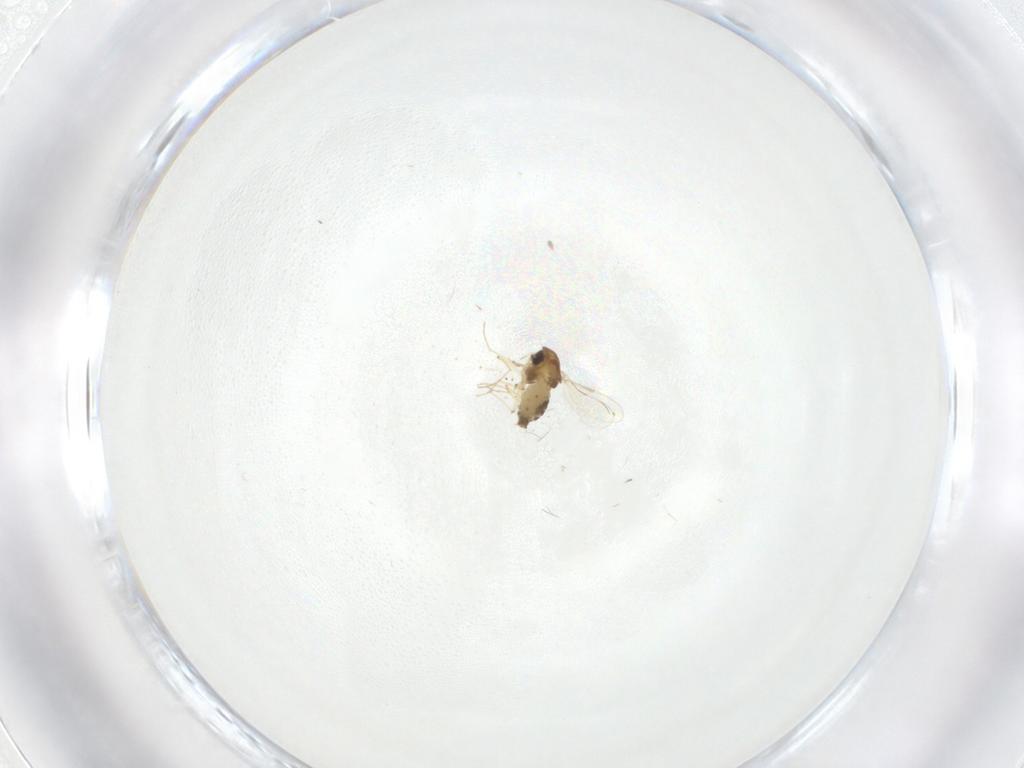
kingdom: Animalia
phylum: Arthropoda
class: Insecta
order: Diptera
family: Chironomidae
